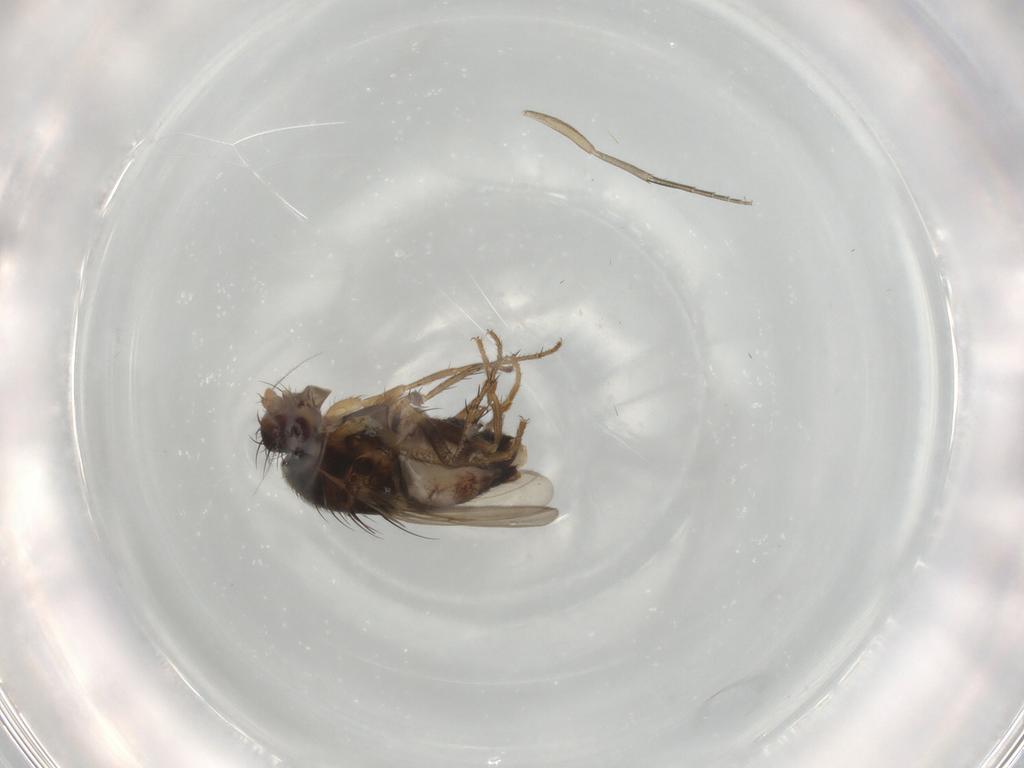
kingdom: Animalia
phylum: Arthropoda
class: Insecta
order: Diptera
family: Sphaeroceridae
